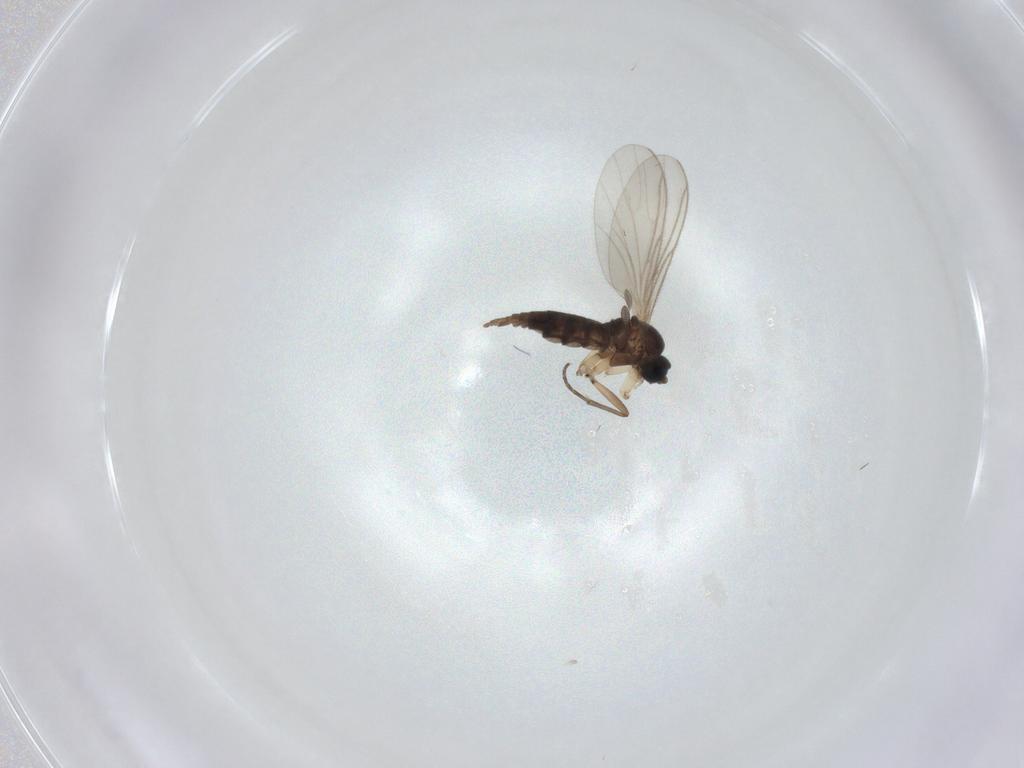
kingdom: Animalia
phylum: Arthropoda
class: Insecta
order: Diptera
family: Sciaridae
